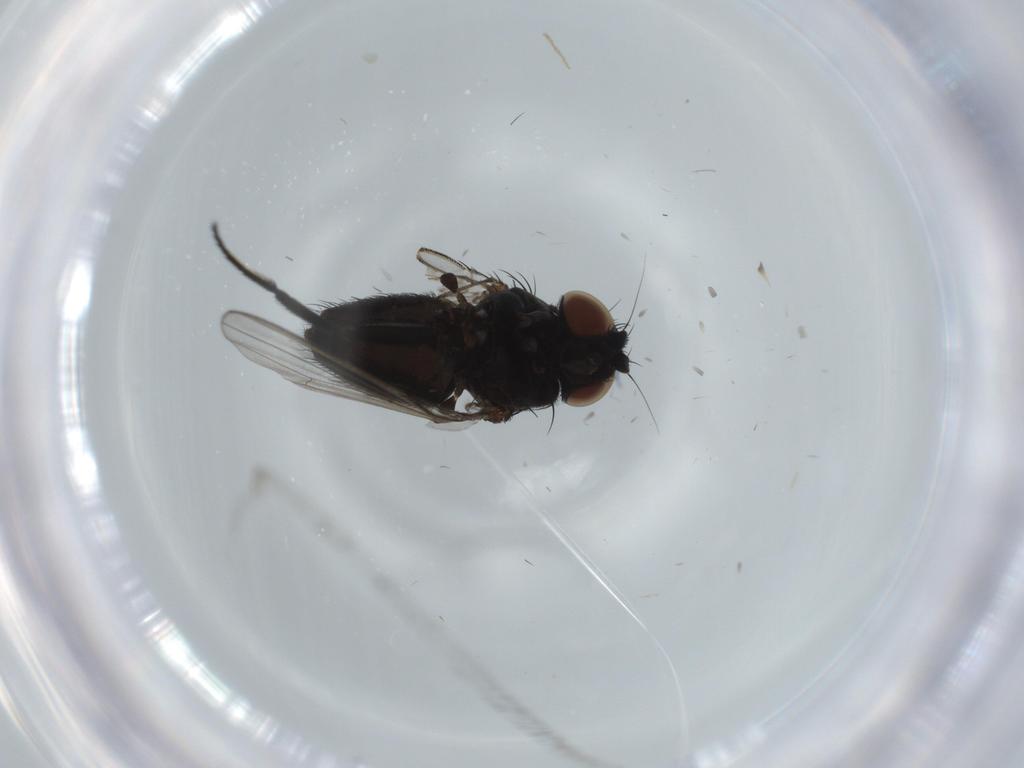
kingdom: Animalia
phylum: Arthropoda
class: Insecta
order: Diptera
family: Milichiidae
